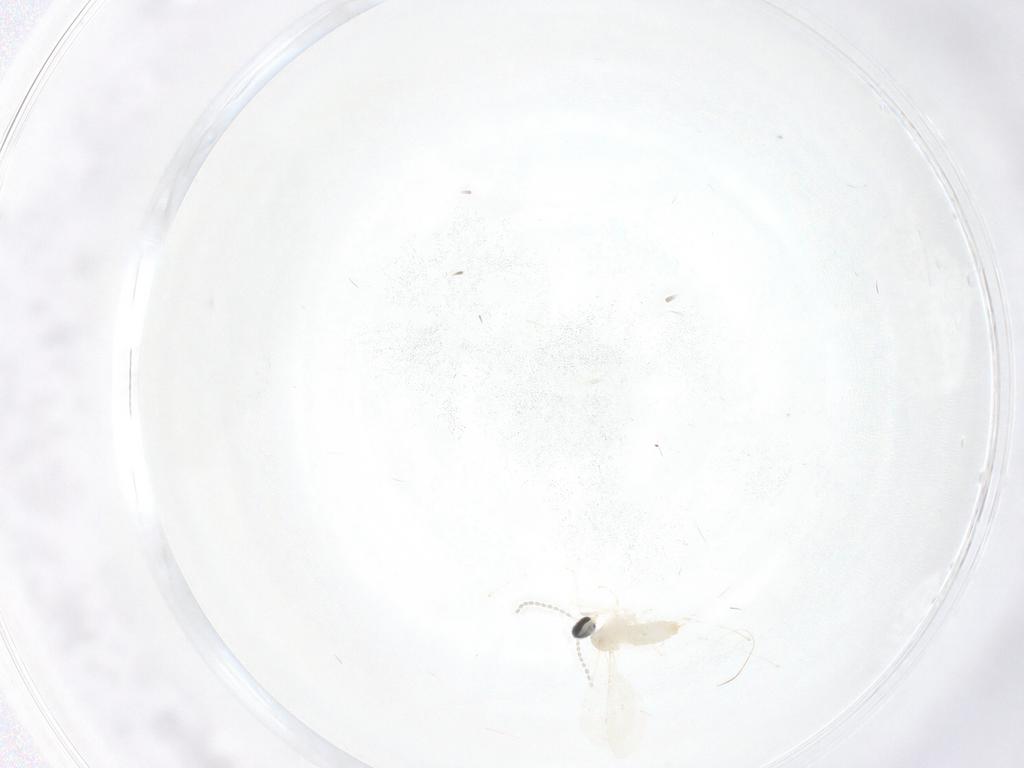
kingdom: Animalia
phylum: Arthropoda
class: Insecta
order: Diptera
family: Cecidomyiidae
